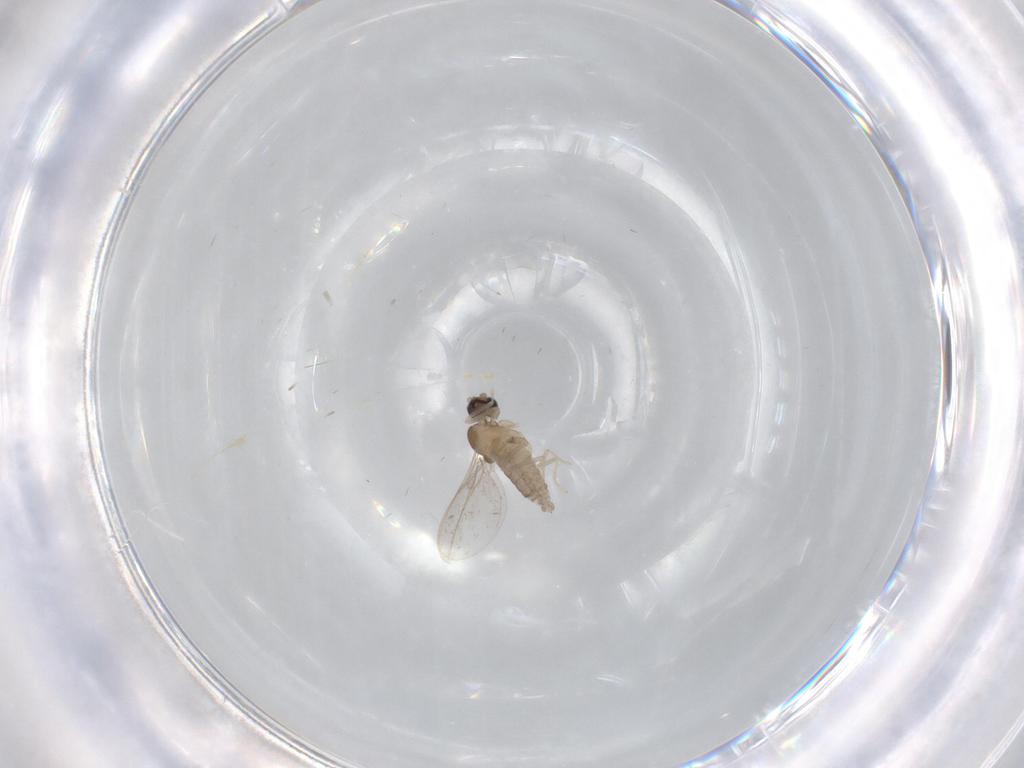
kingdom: Animalia
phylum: Arthropoda
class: Insecta
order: Diptera
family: Cecidomyiidae
